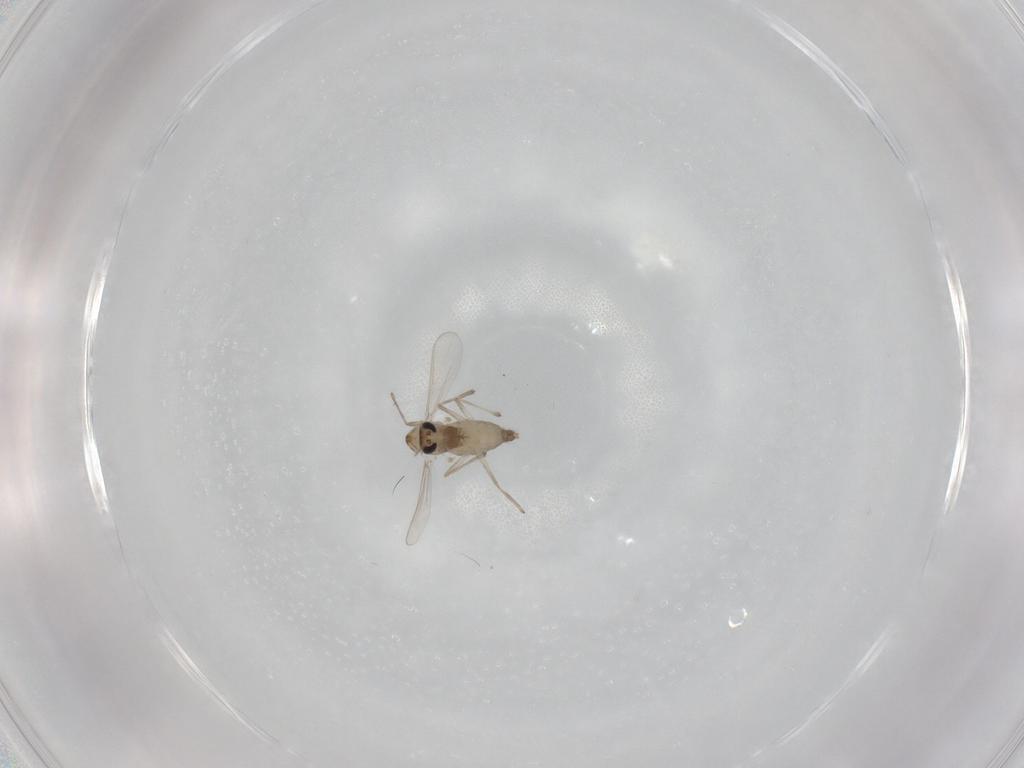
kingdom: Animalia
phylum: Arthropoda
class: Insecta
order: Diptera
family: Chironomidae
